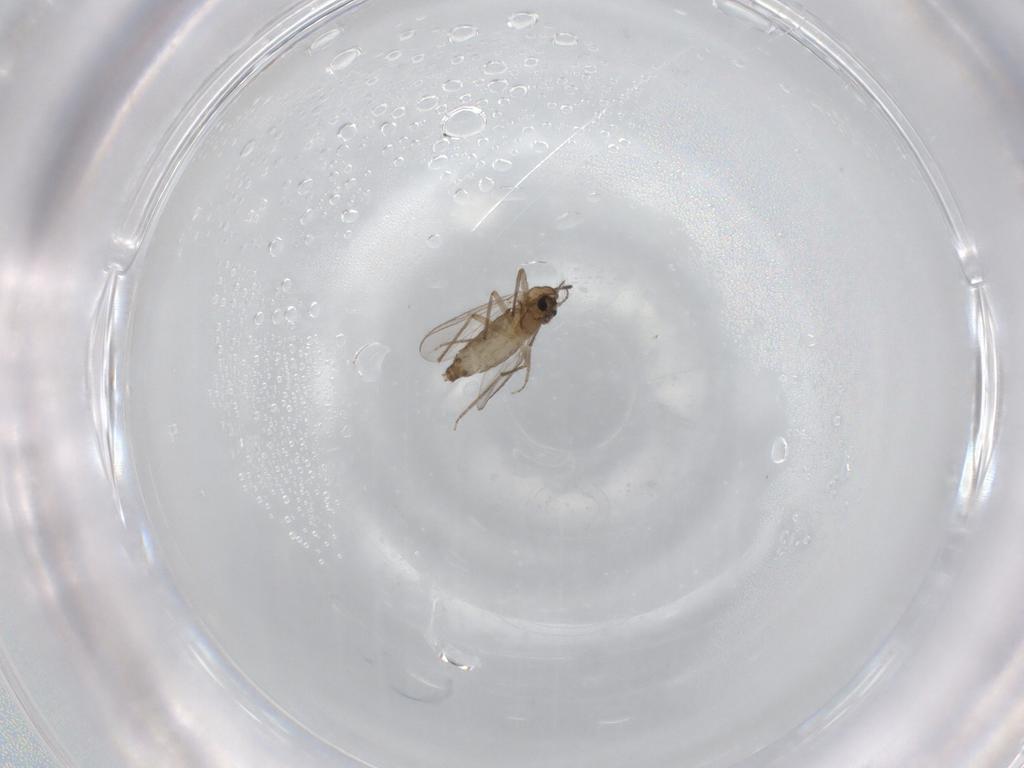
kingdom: Animalia
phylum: Arthropoda
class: Insecta
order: Diptera
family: Chironomidae
